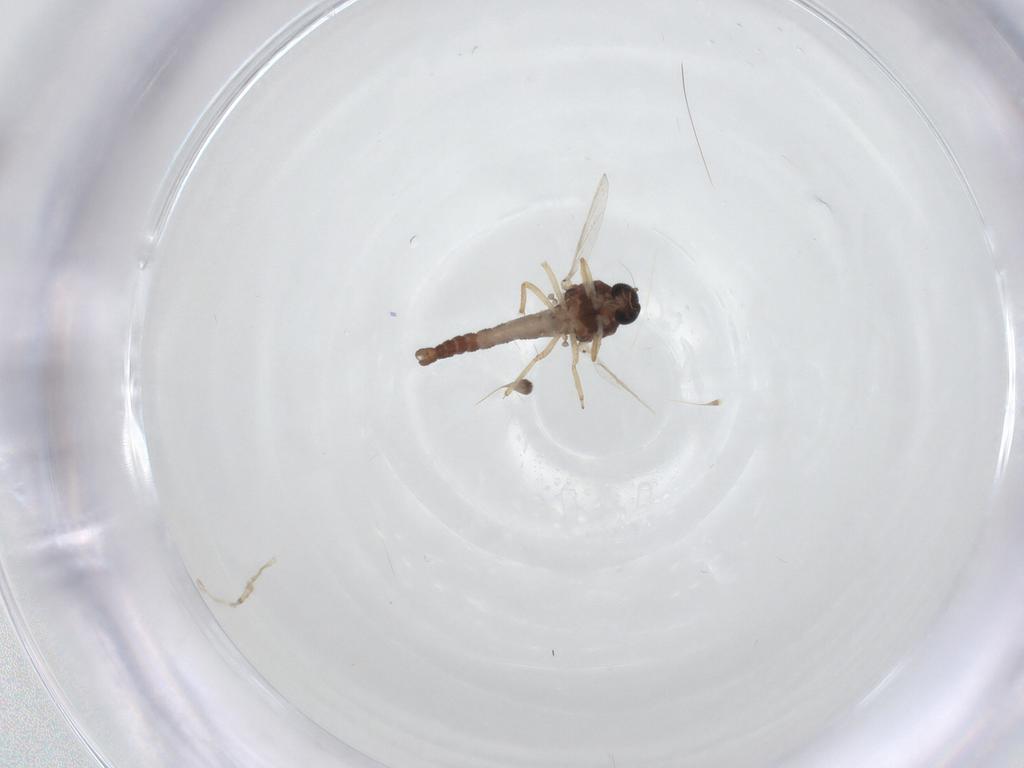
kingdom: Animalia
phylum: Arthropoda
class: Insecta
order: Diptera
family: Ceratopogonidae
